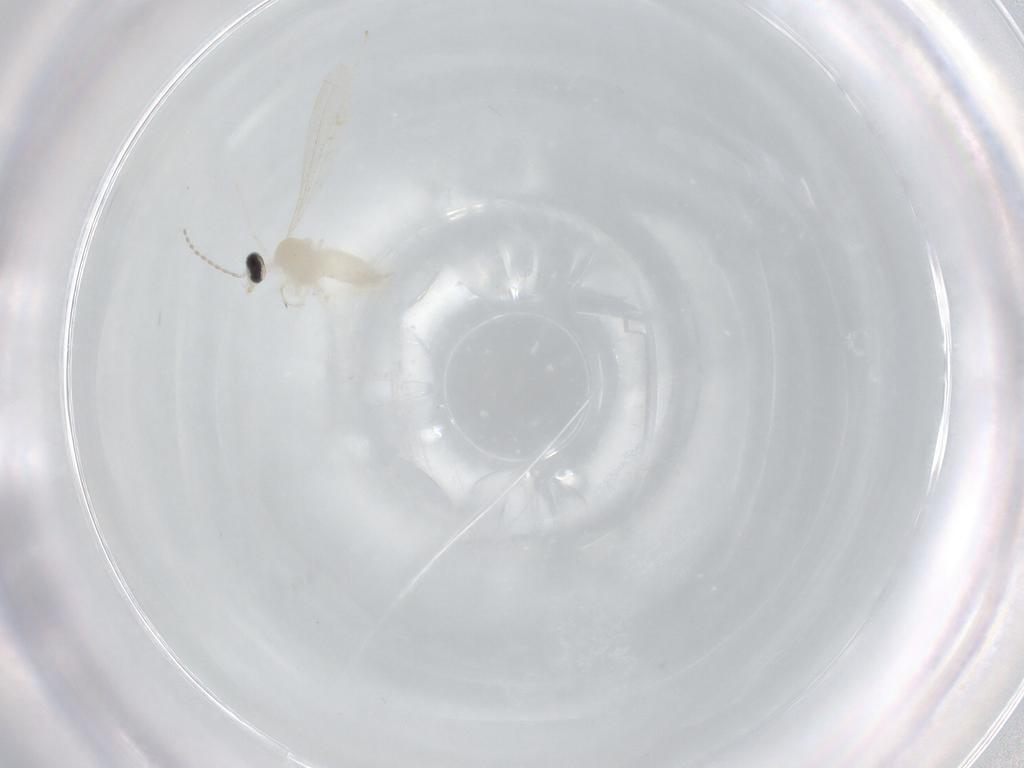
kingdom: Animalia
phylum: Arthropoda
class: Insecta
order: Diptera
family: Cecidomyiidae
